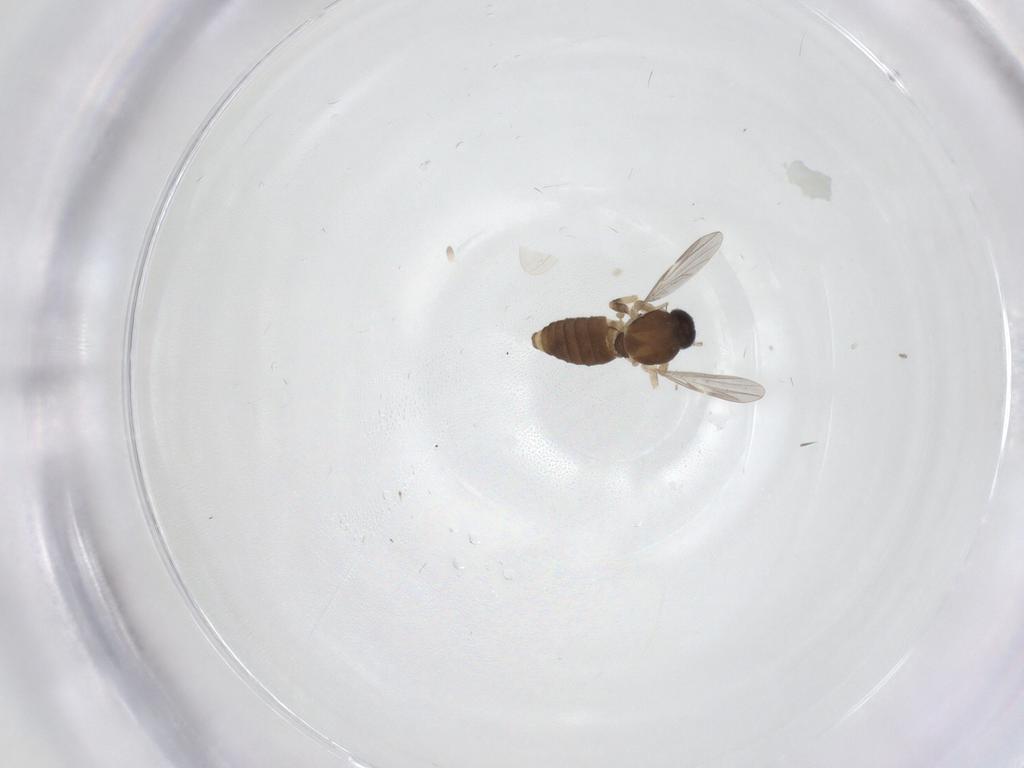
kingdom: Animalia
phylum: Arthropoda
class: Insecta
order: Diptera
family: Ceratopogonidae
